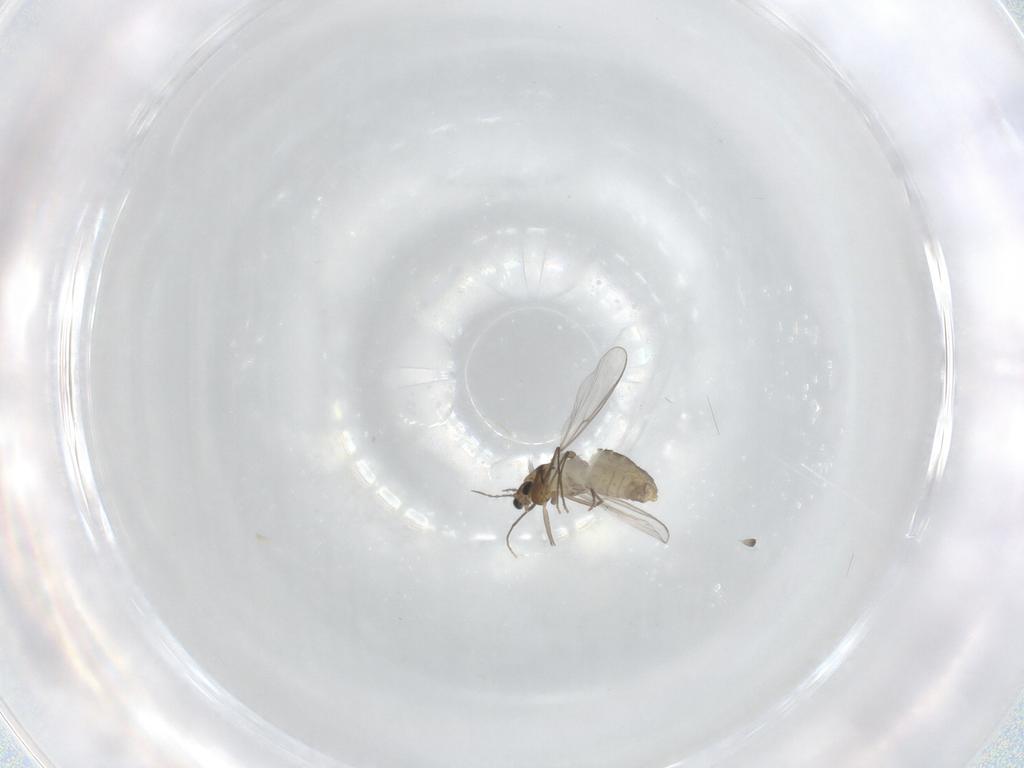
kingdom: Animalia
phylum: Arthropoda
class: Insecta
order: Diptera
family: Chironomidae
